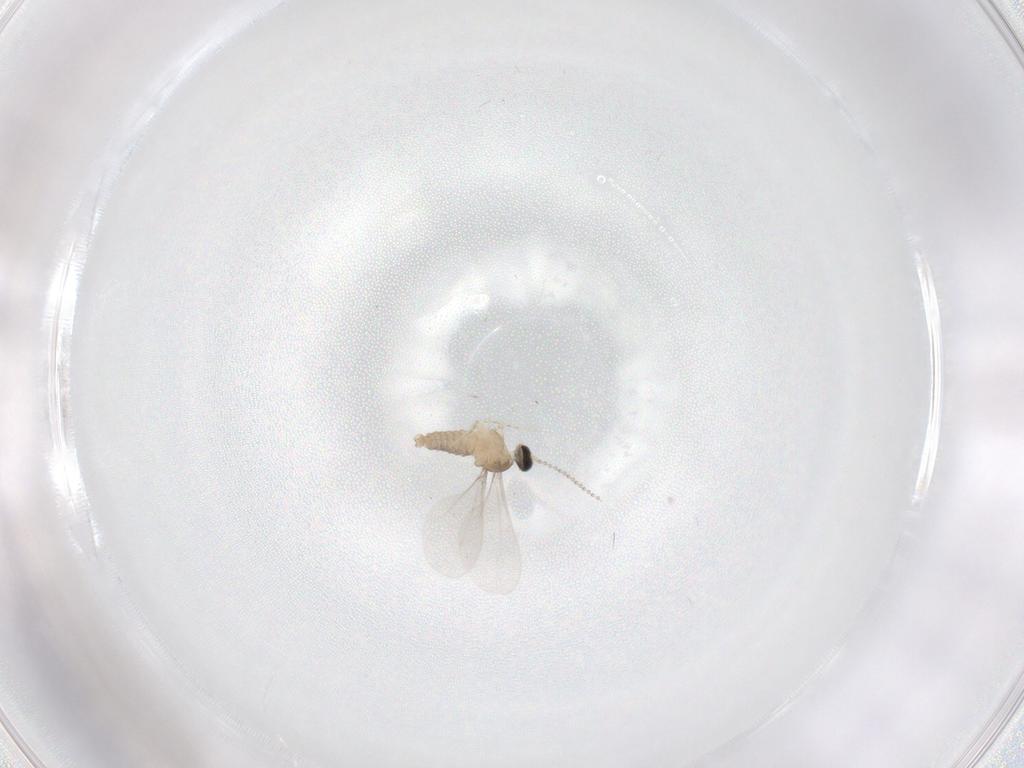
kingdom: Animalia
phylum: Arthropoda
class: Insecta
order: Diptera
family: Cecidomyiidae
